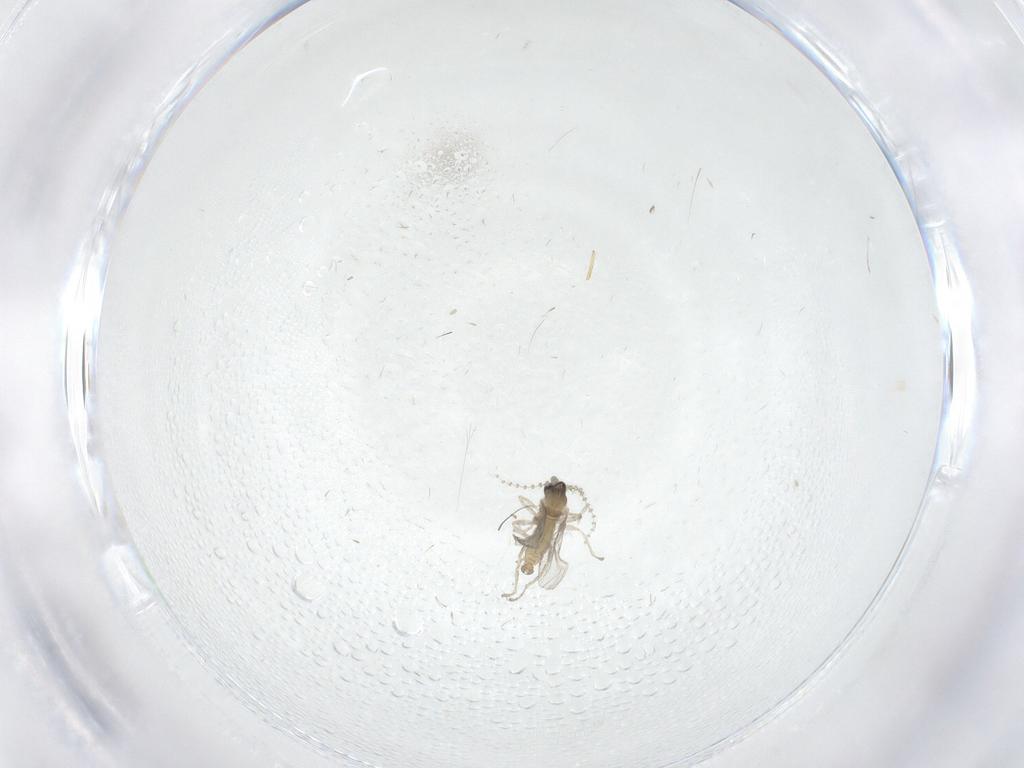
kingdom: Animalia
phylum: Arthropoda
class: Insecta
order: Diptera
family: Cecidomyiidae
